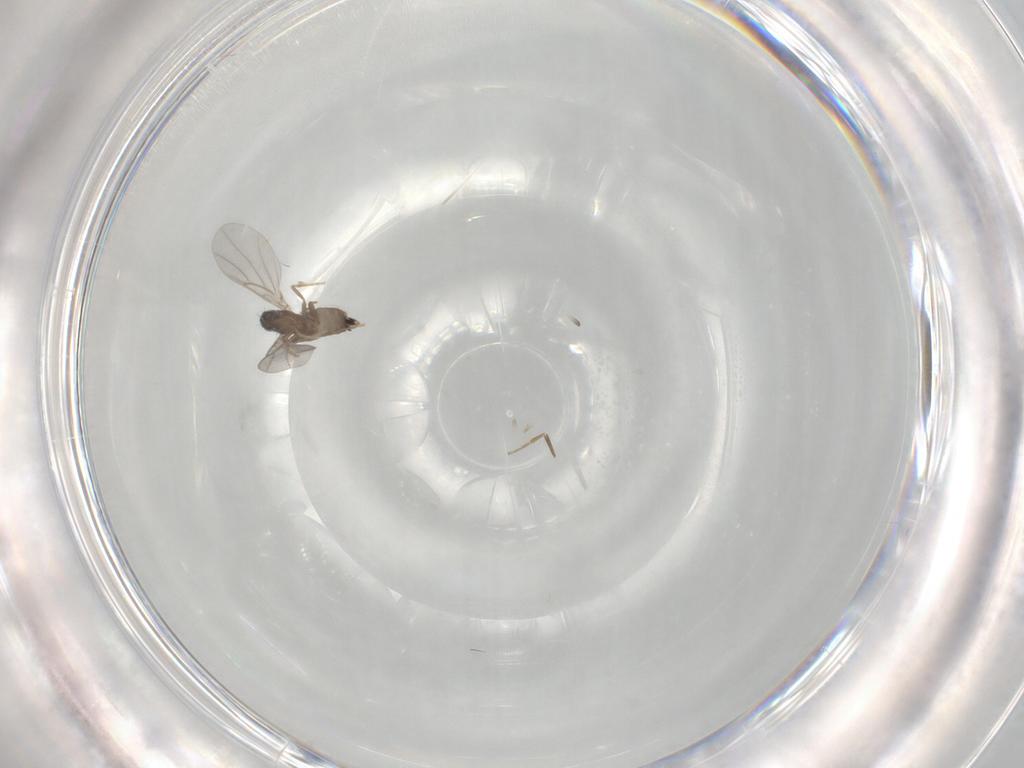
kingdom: Animalia
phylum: Arthropoda
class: Insecta
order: Diptera
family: Phoridae
